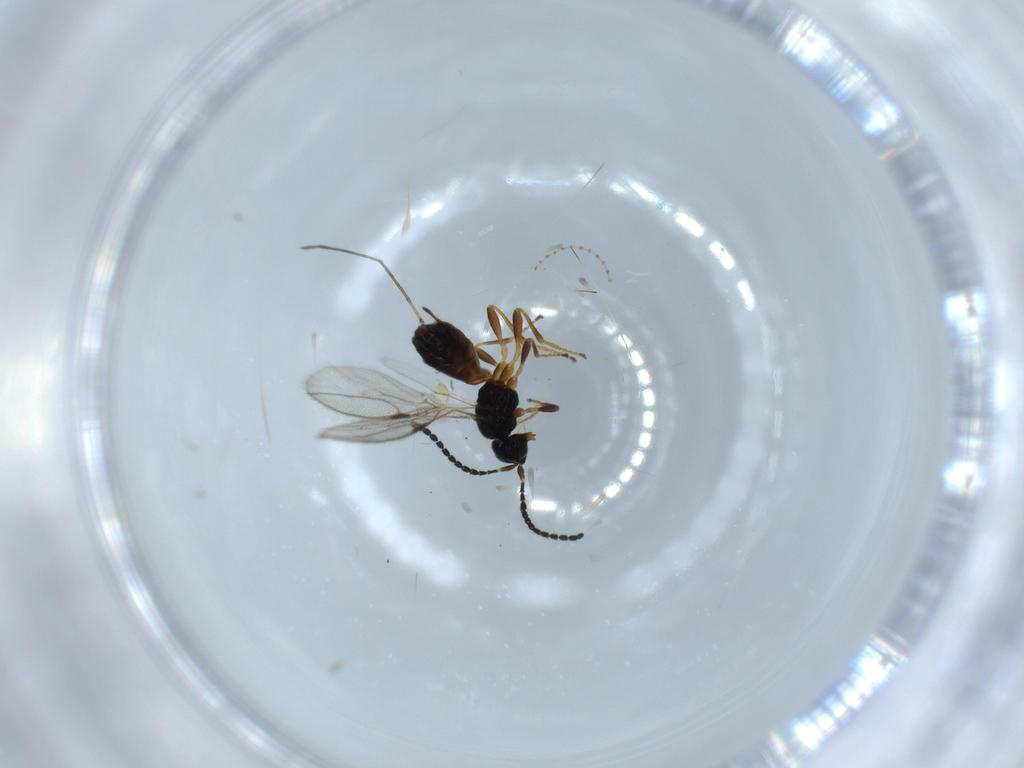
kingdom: Animalia
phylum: Arthropoda
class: Insecta
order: Hymenoptera
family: Braconidae
